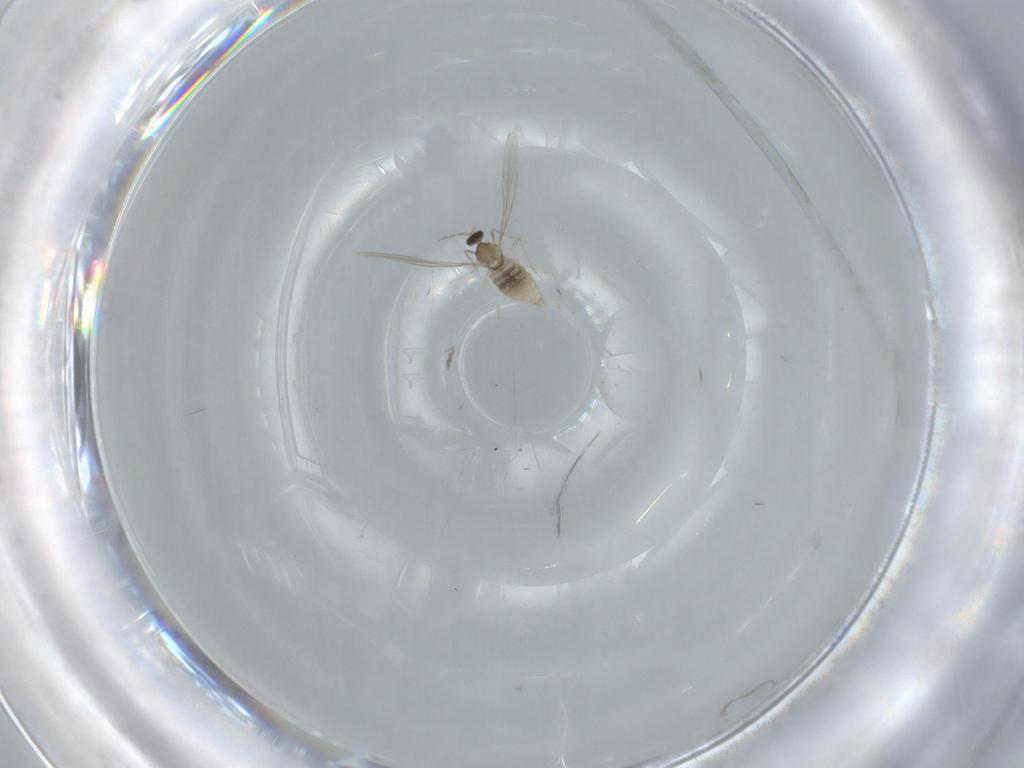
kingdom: Animalia
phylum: Arthropoda
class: Insecta
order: Diptera
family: Cecidomyiidae
